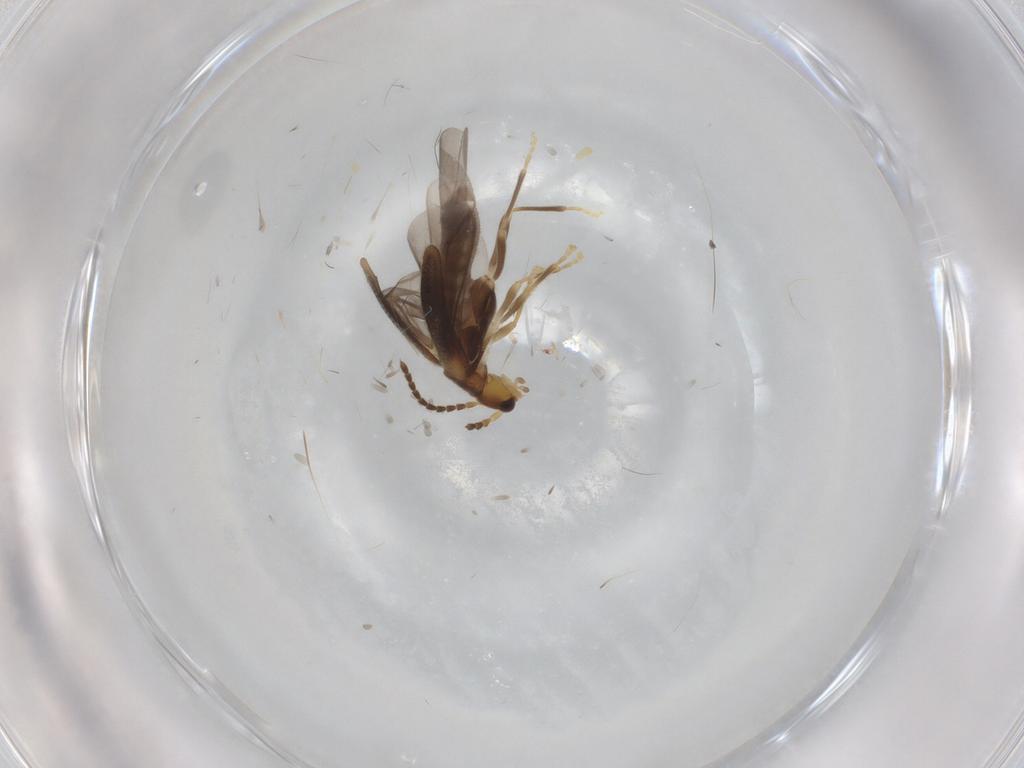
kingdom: Animalia
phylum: Arthropoda
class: Insecta
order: Coleoptera
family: Cantharidae
